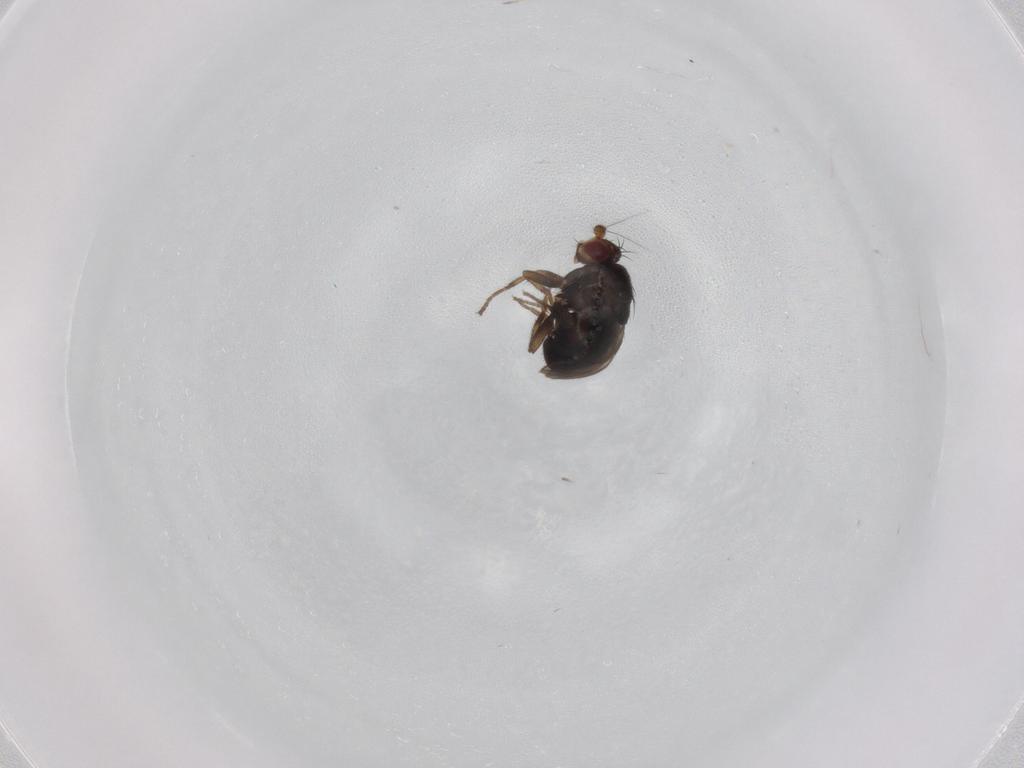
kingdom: Animalia
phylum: Arthropoda
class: Insecta
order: Diptera
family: Sphaeroceridae
